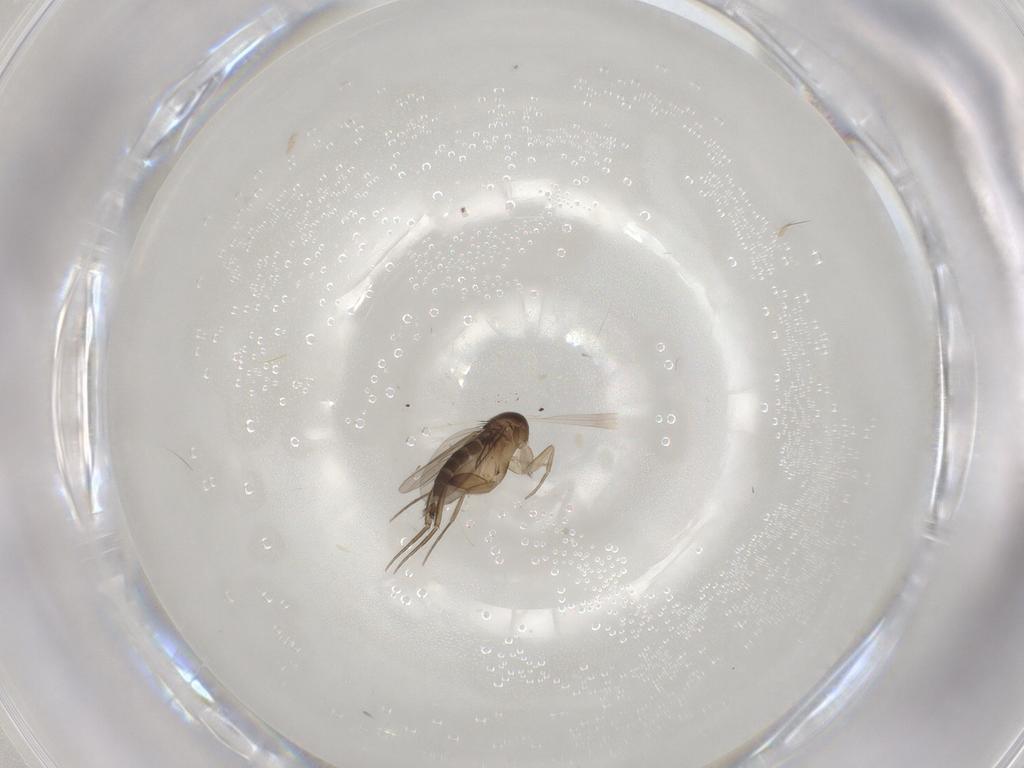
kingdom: Animalia
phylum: Arthropoda
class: Insecta
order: Diptera
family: Phoridae
